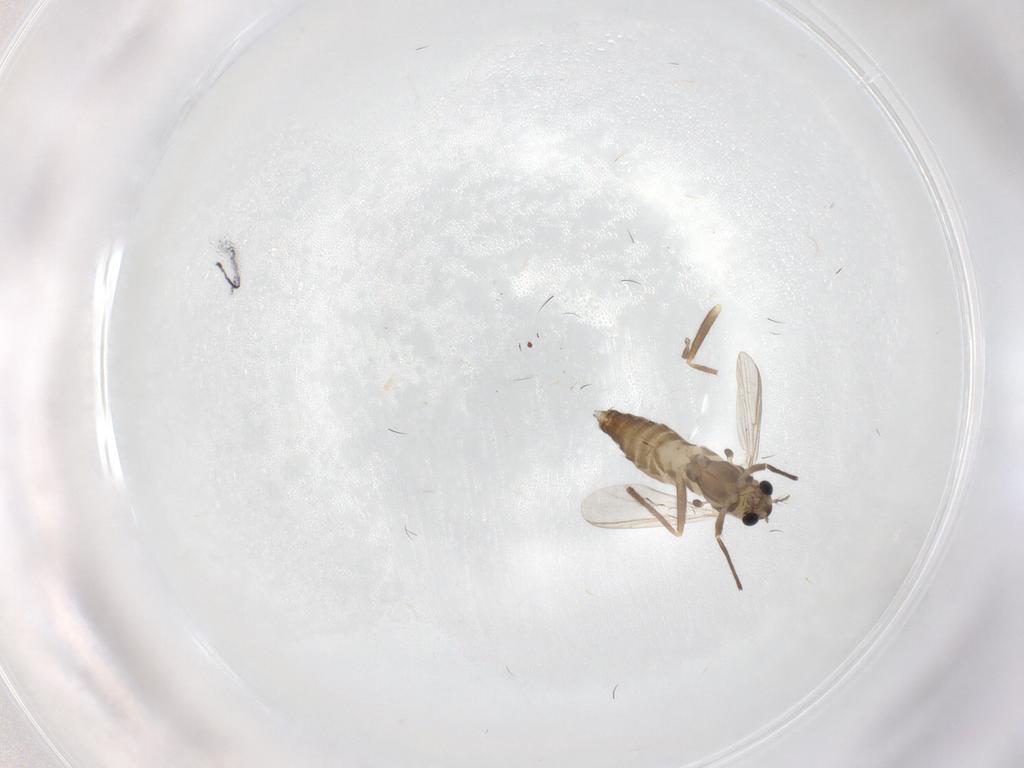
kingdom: Animalia
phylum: Arthropoda
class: Insecta
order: Diptera
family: Chironomidae
